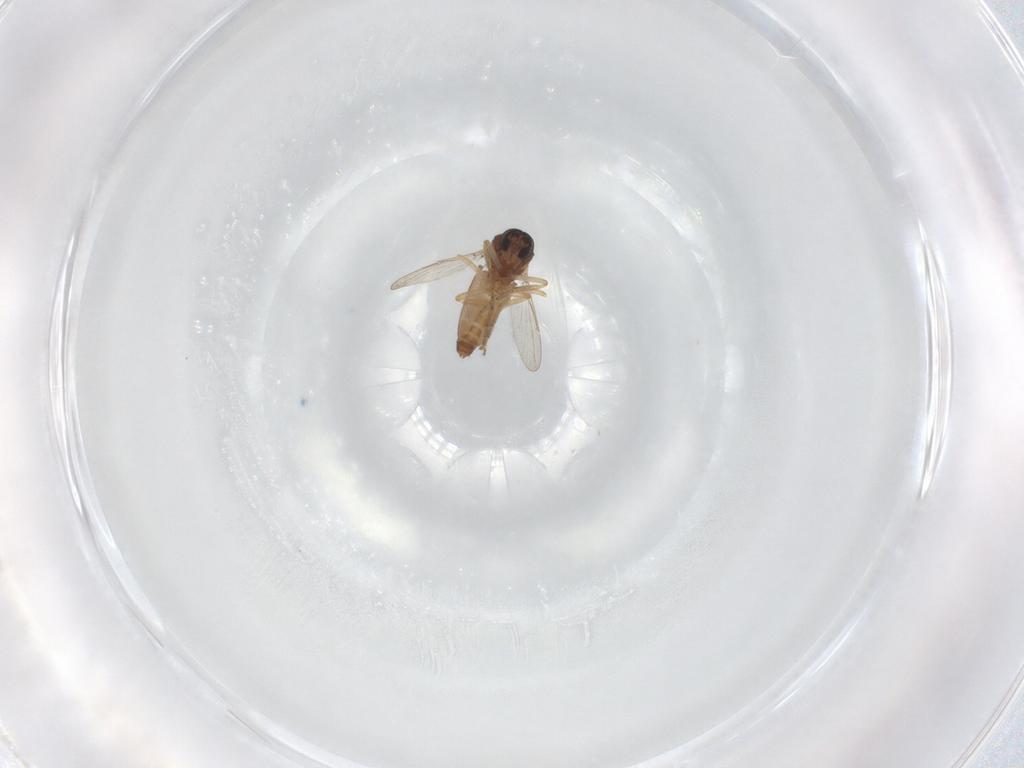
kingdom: Animalia
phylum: Arthropoda
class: Insecta
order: Diptera
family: Ceratopogonidae
